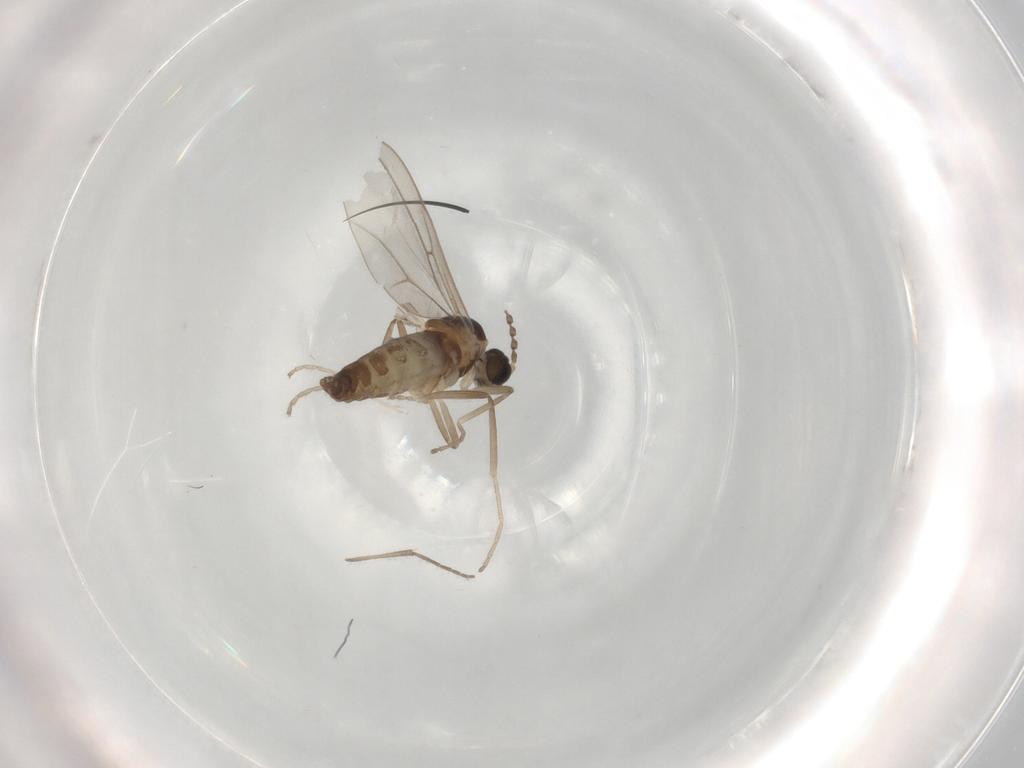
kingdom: Animalia
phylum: Arthropoda
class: Insecta
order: Diptera
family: Cecidomyiidae
